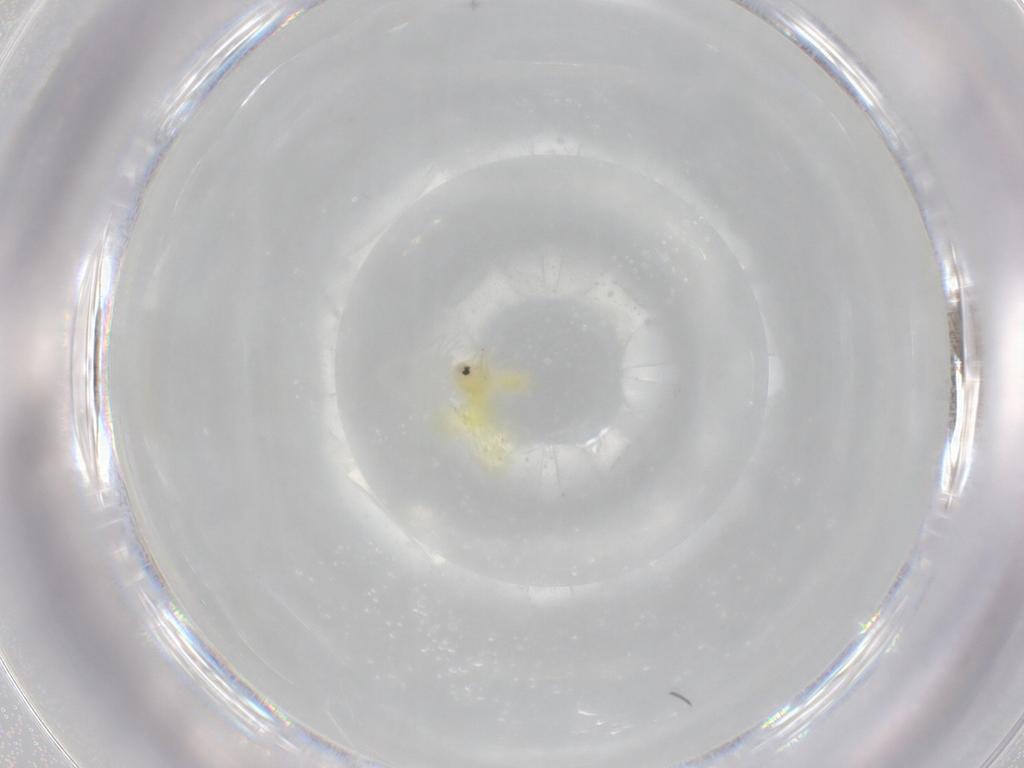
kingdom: Animalia
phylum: Arthropoda
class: Insecta
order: Hemiptera
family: Aleyrodidae
